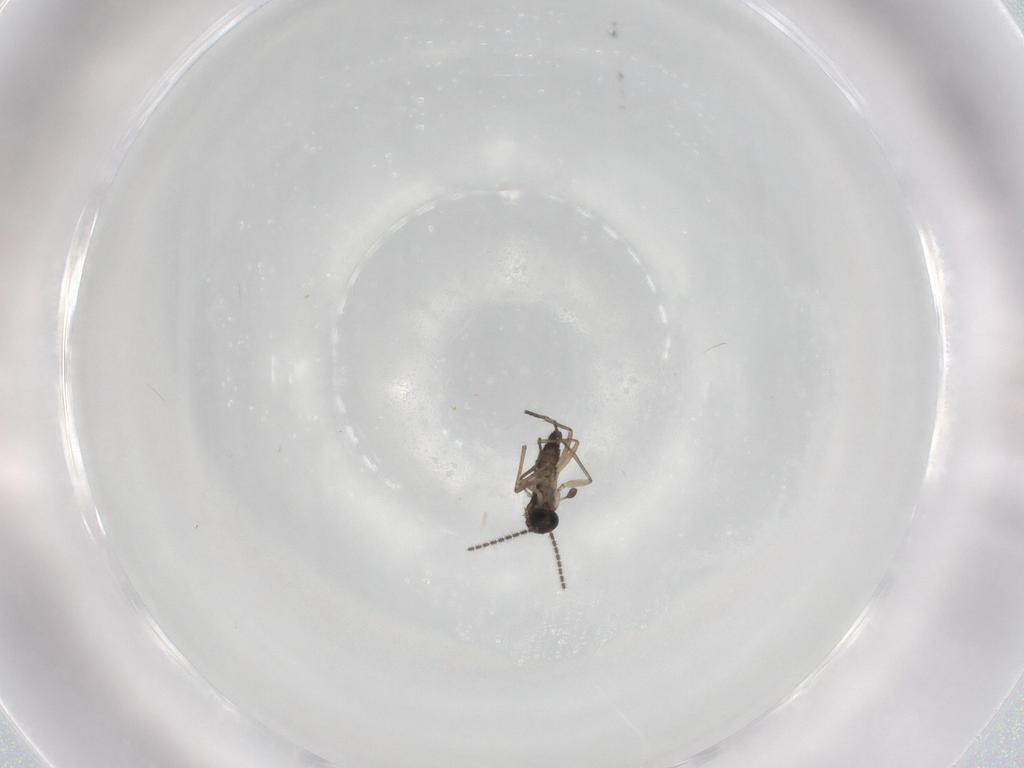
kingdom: Animalia
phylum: Arthropoda
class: Insecta
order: Diptera
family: Sciaridae
